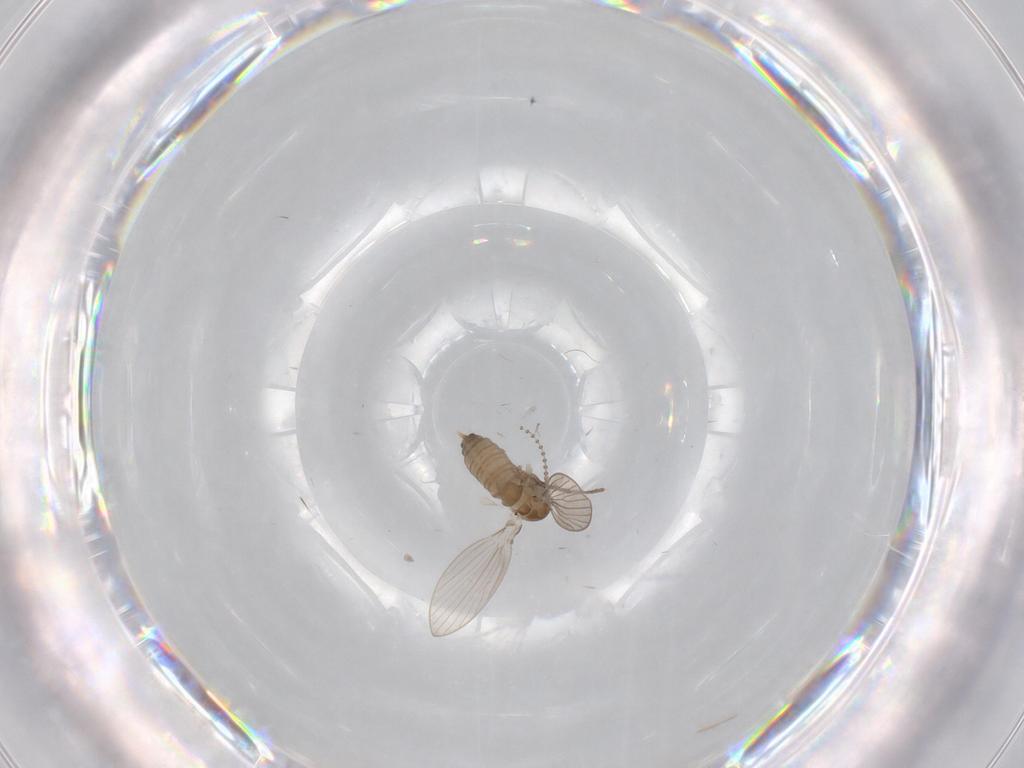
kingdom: Animalia
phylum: Arthropoda
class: Insecta
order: Diptera
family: Psychodidae
